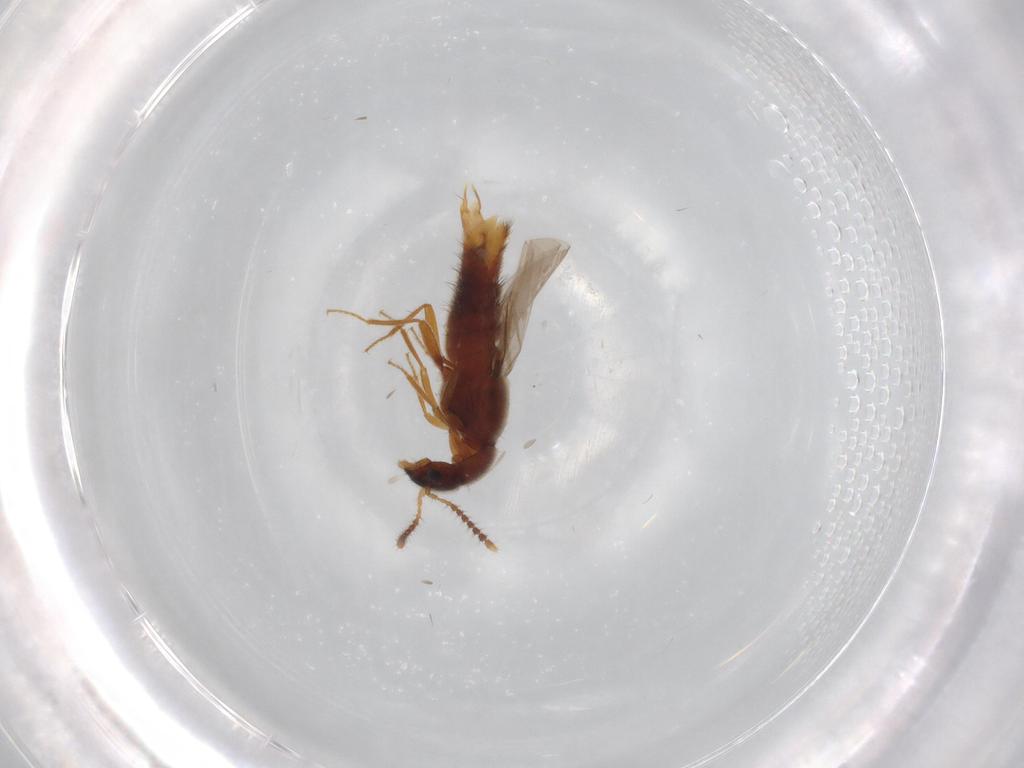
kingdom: Animalia
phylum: Arthropoda
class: Insecta
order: Coleoptera
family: Staphylinidae
